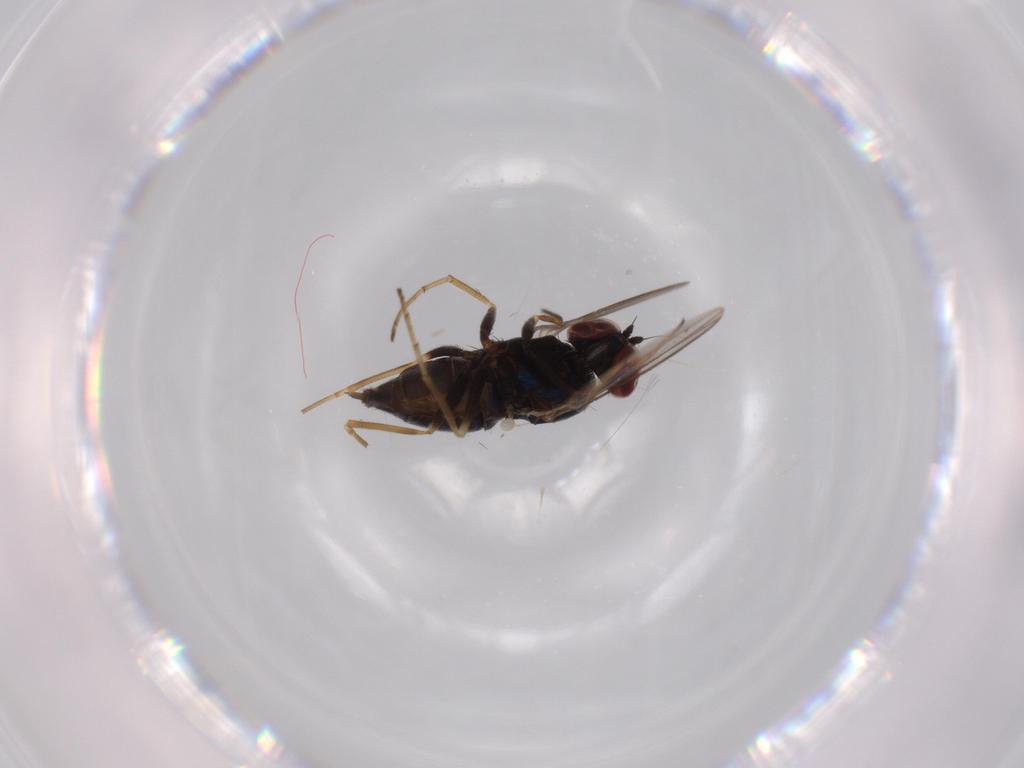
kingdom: Animalia
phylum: Arthropoda
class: Insecta
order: Diptera
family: Dolichopodidae
